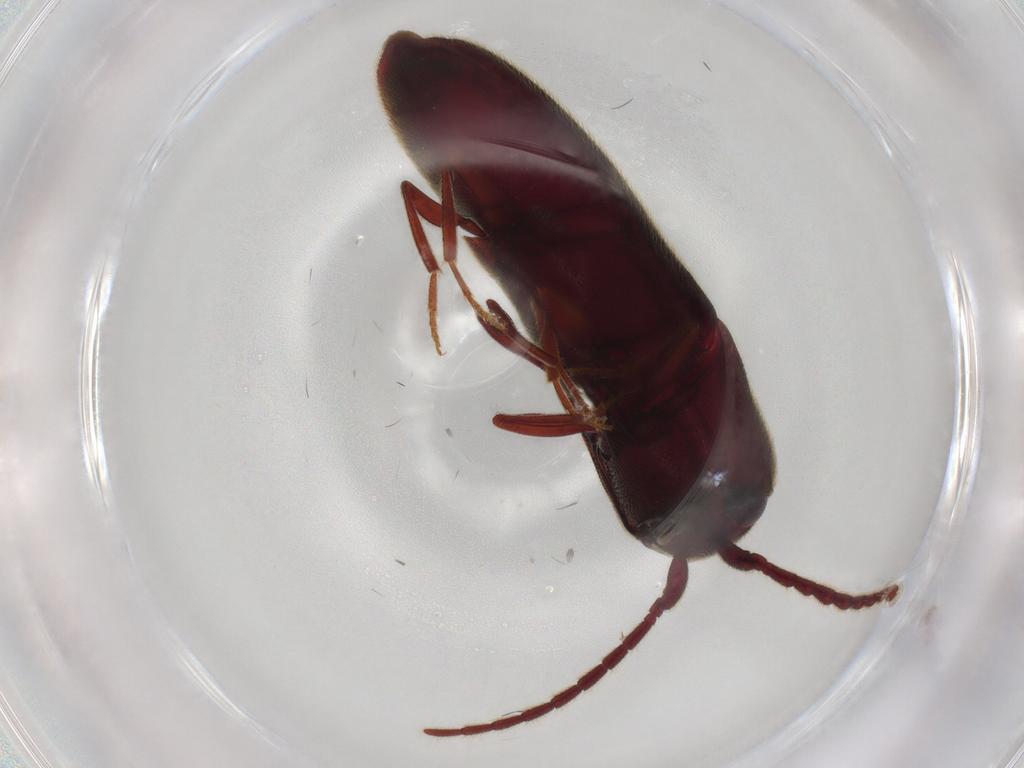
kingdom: Animalia
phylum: Arthropoda
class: Insecta
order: Coleoptera
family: Eucnemidae
